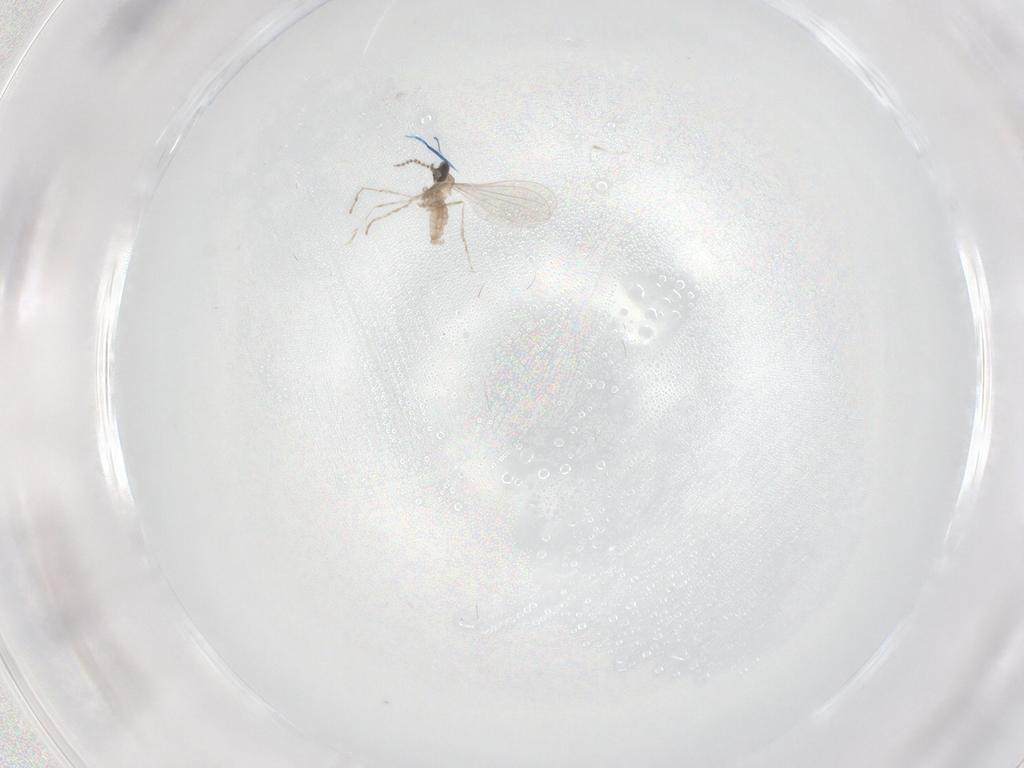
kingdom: Animalia
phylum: Arthropoda
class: Insecta
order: Diptera
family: Cecidomyiidae
